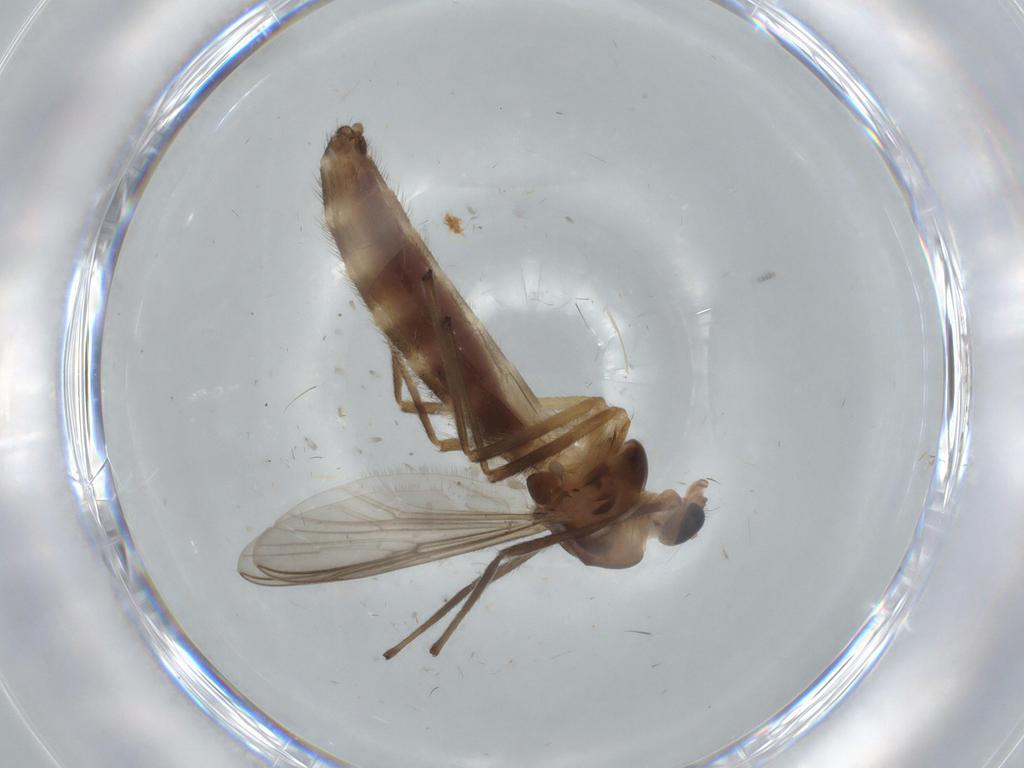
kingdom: Animalia
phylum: Arthropoda
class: Insecta
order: Diptera
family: Chironomidae
